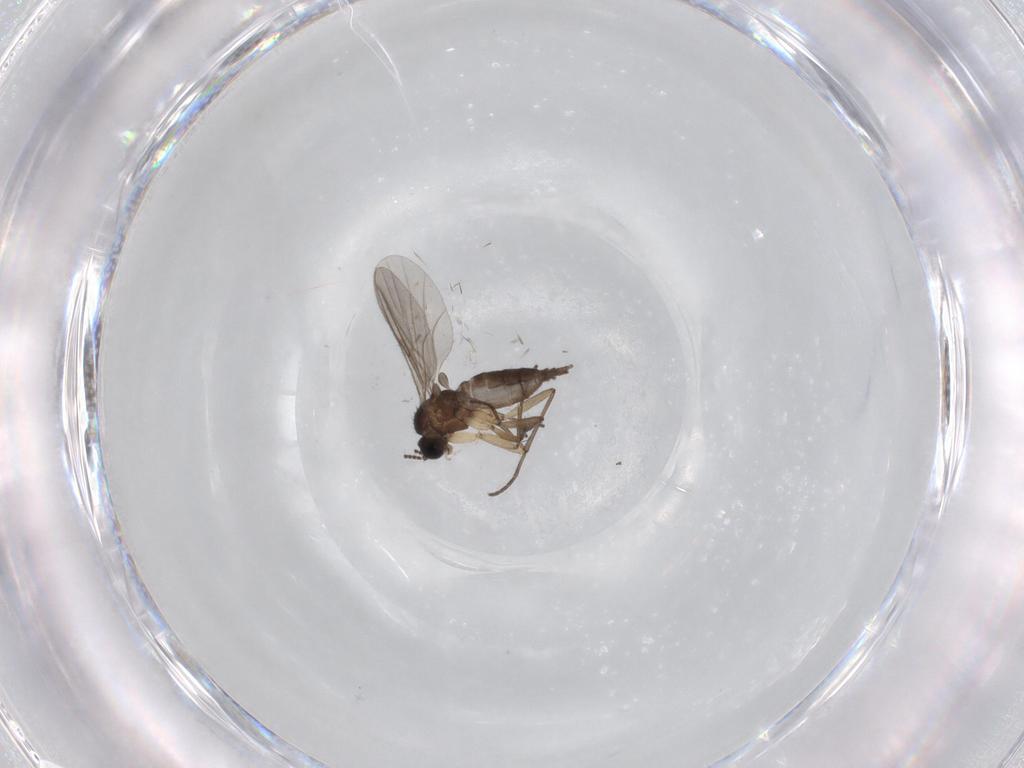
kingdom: Animalia
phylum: Arthropoda
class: Insecta
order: Diptera
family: Sciaridae
